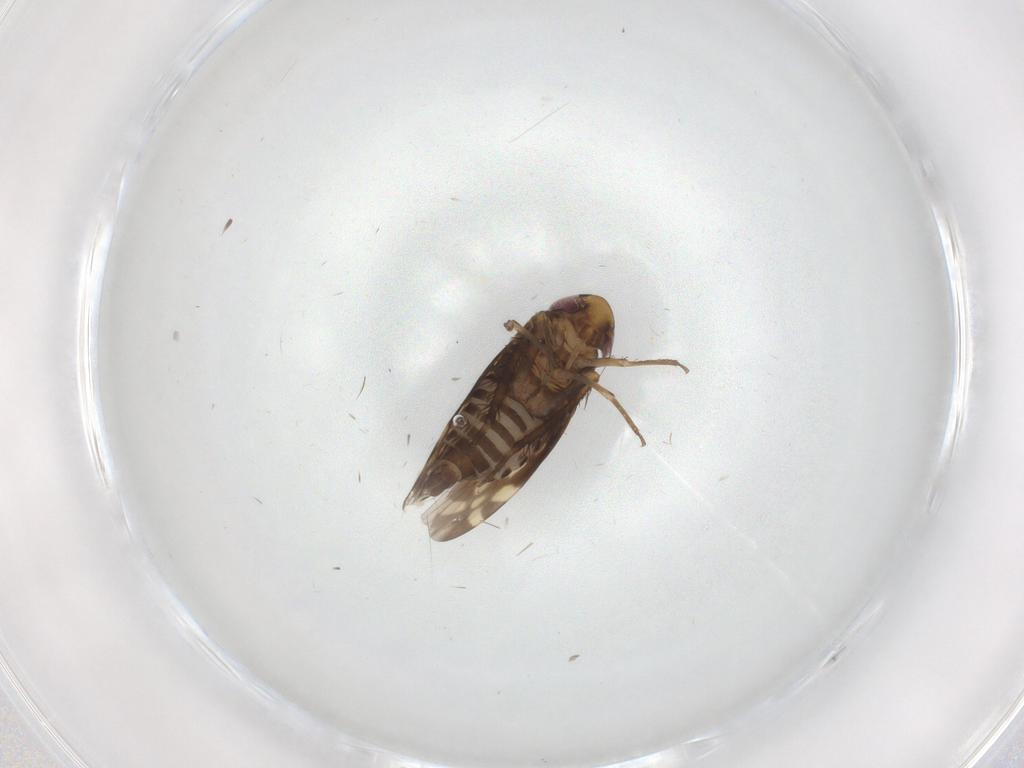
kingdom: Animalia
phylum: Arthropoda
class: Insecta
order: Hemiptera
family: Cicadellidae
